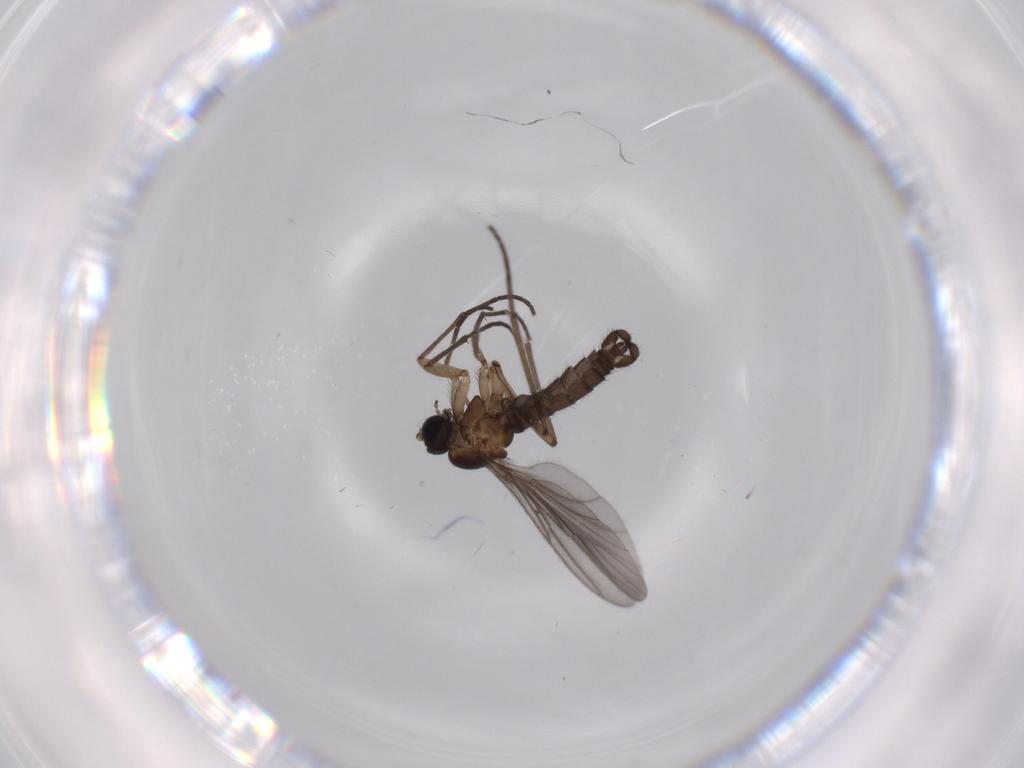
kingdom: Animalia
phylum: Arthropoda
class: Insecta
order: Diptera
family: Sciaridae
